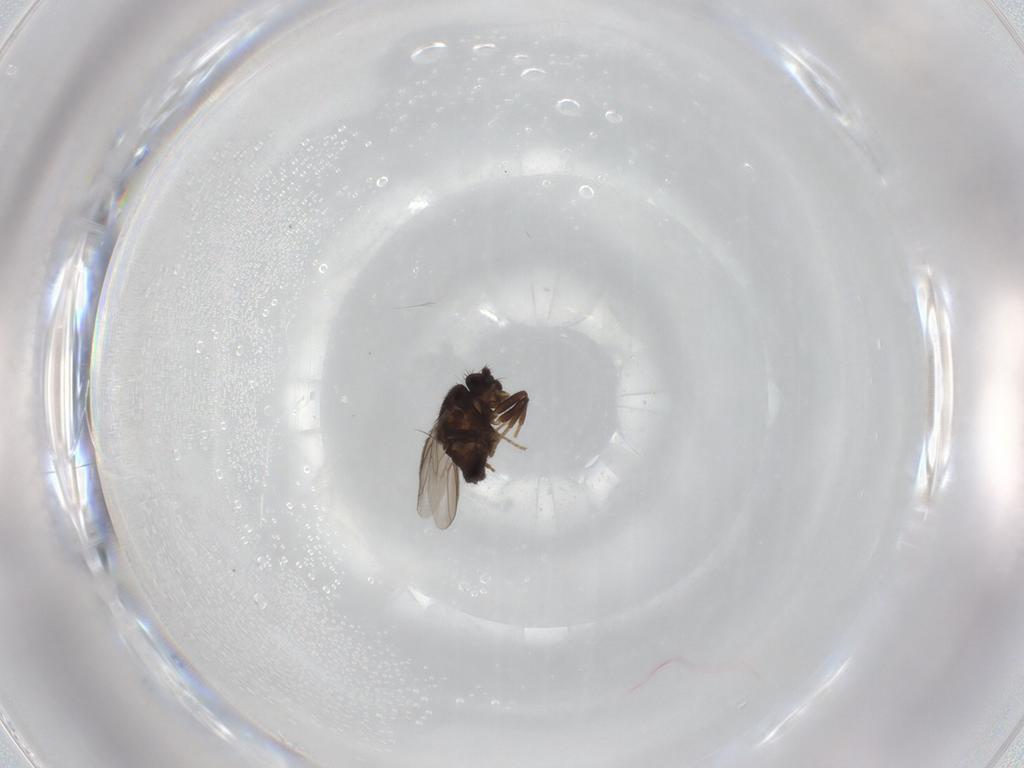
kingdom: Animalia
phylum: Arthropoda
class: Insecta
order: Diptera
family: Sphaeroceridae
